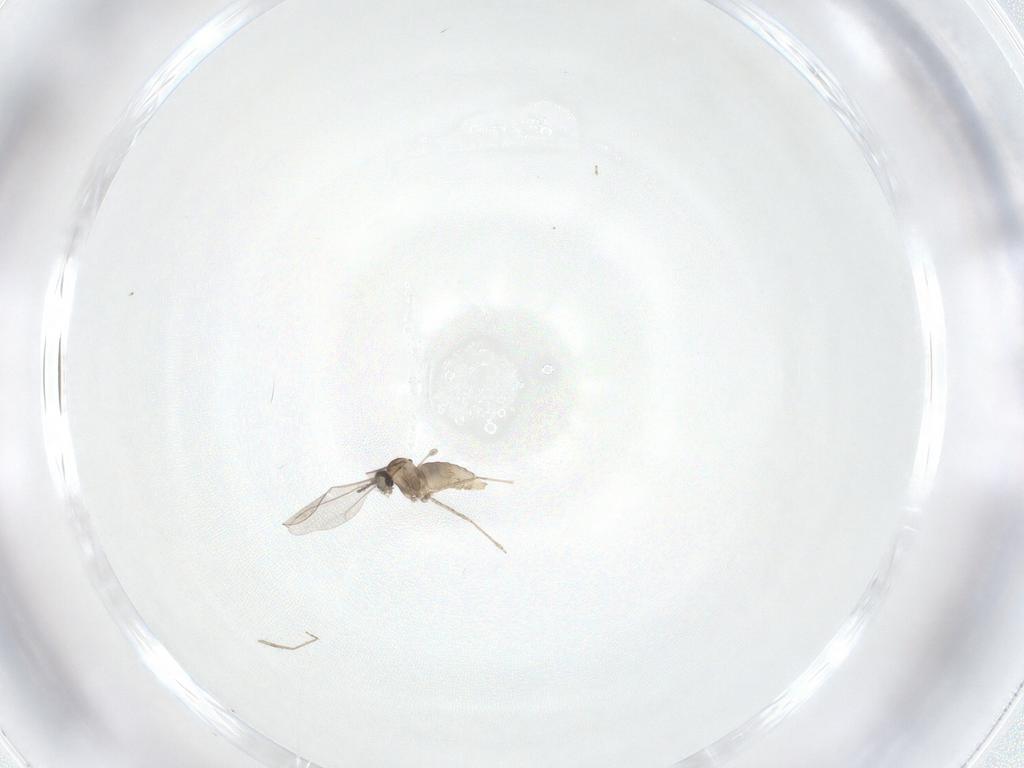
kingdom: Animalia
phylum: Arthropoda
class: Insecta
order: Diptera
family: Cecidomyiidae
